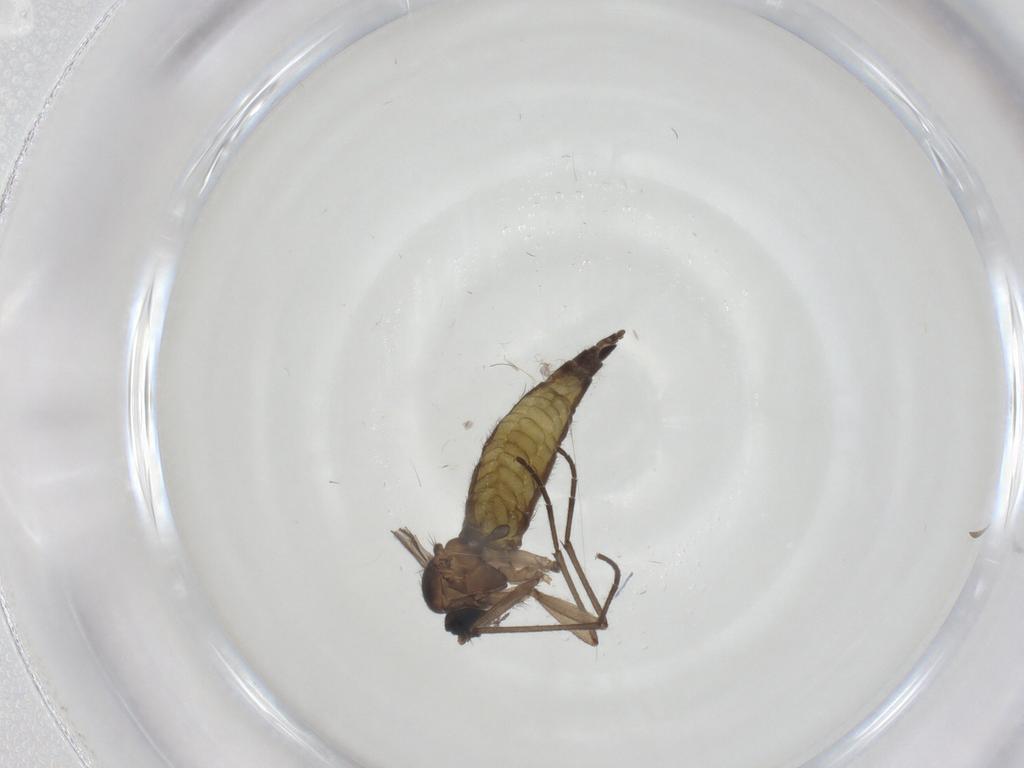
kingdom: Animalia
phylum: Arthropoda
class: Insecta
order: Diptera
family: Sciaridae
